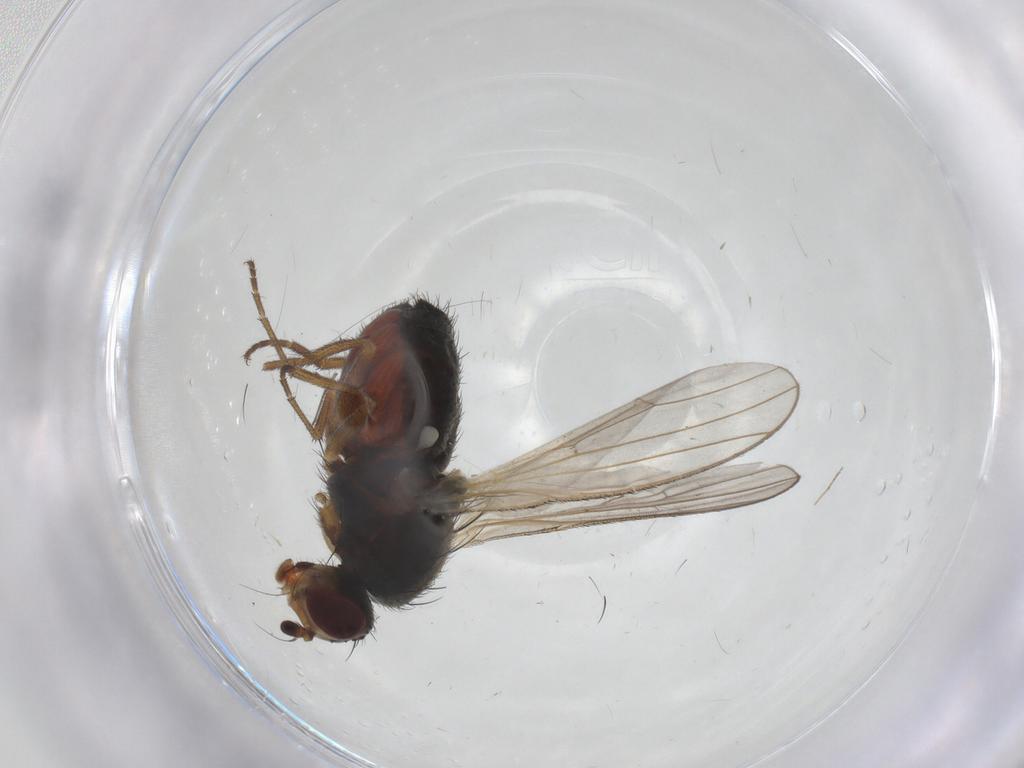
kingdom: Animalia
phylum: Arthropoda
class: Insecta
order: Diptera
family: Heleomyzidae
